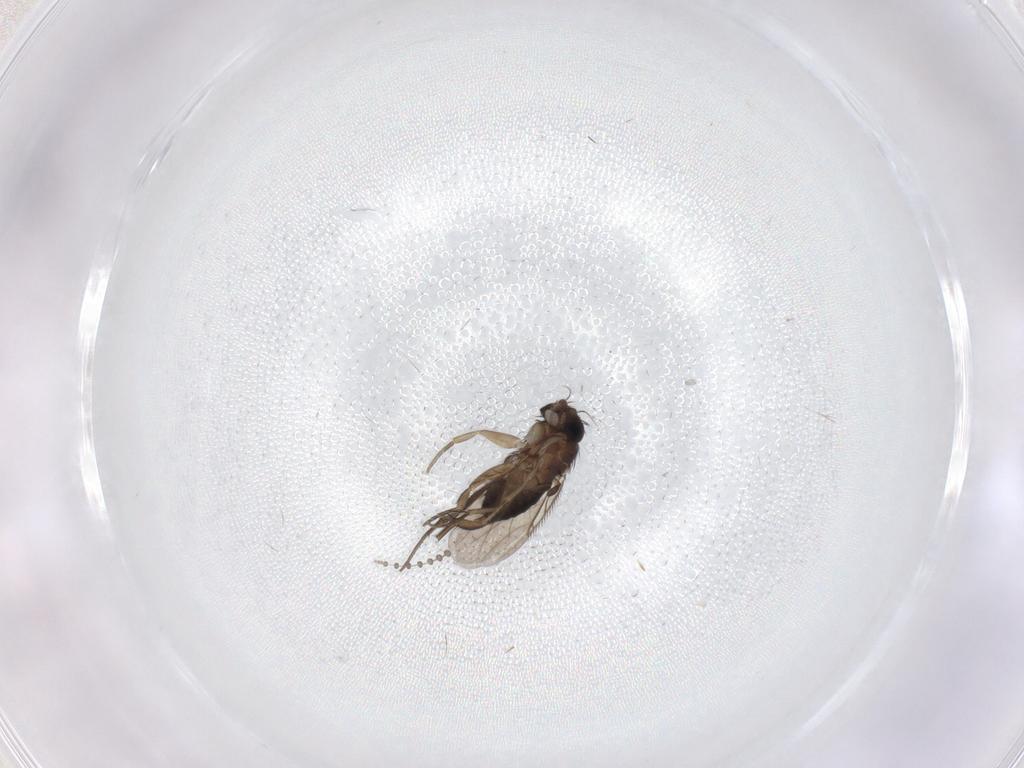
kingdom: Animalia
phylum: Arthropoda
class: Insecta
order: Diptera
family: Phoridae
